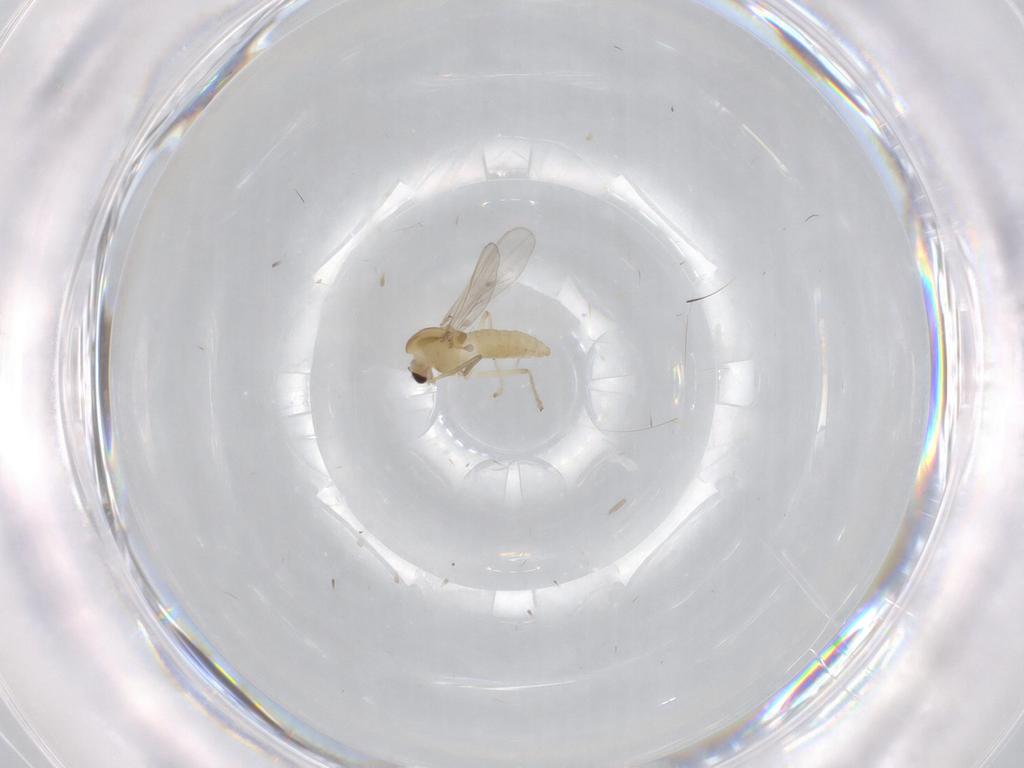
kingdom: Animalia
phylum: Arthropoda
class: Insecta
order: Diptera
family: Chironomidae
